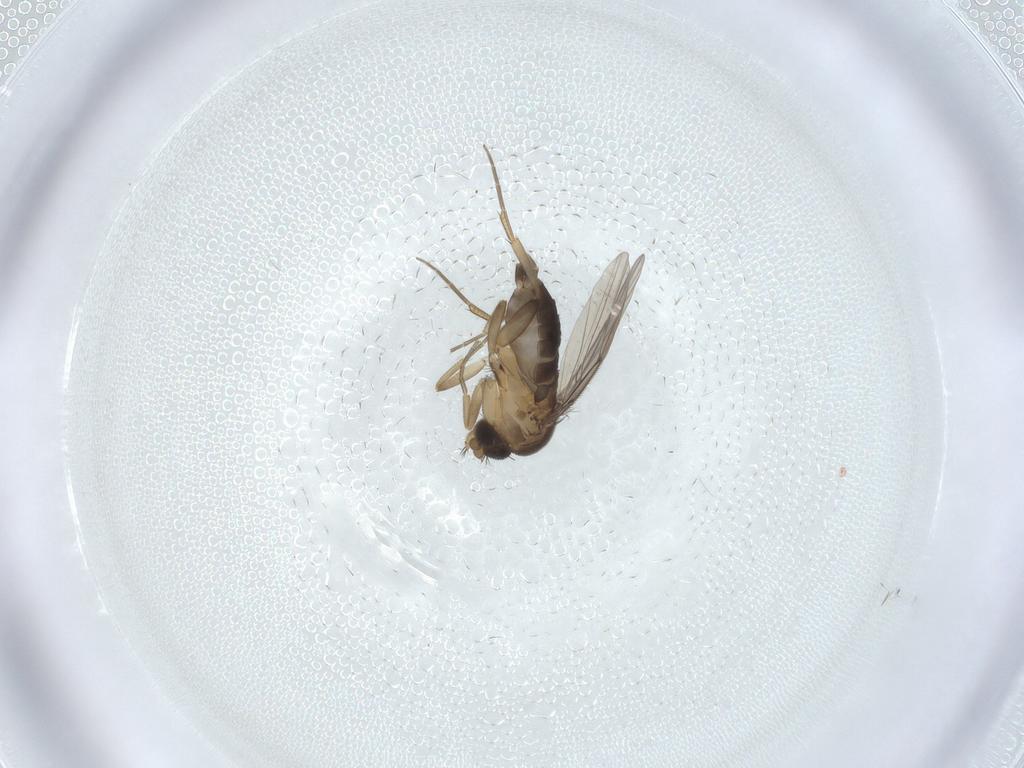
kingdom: Animalia
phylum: Arthropoda
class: Insecta
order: Diptera
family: Phoridae
